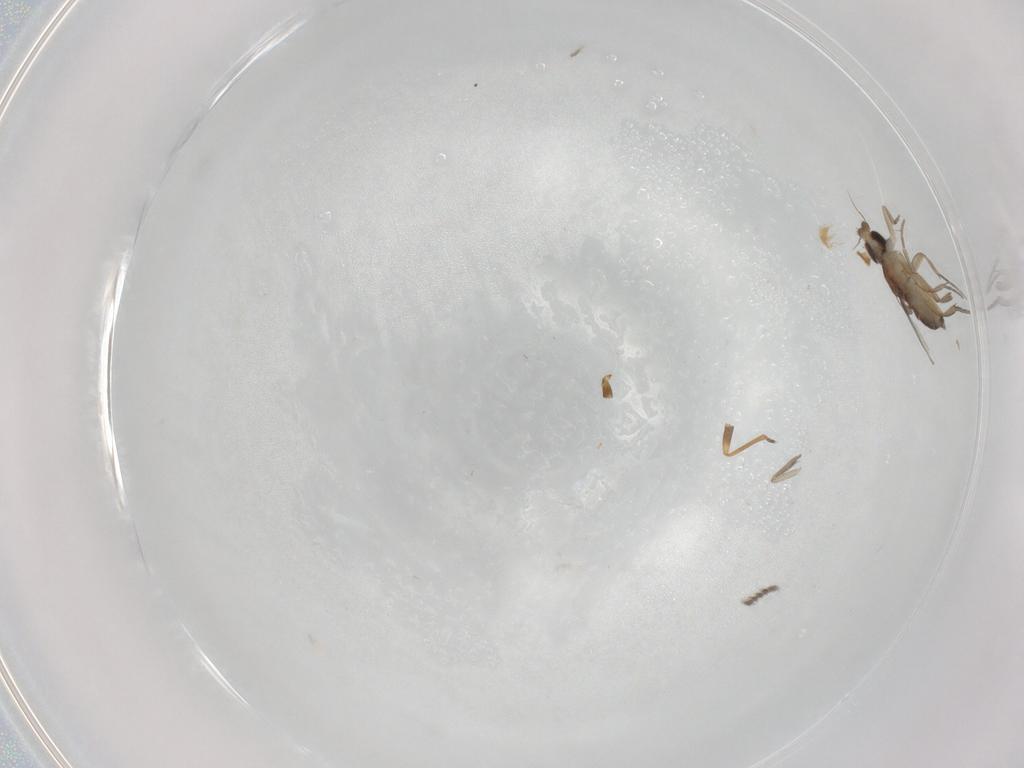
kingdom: Animalia
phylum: Arthropoda
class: Insecta
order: Diptera
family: Phoridae
